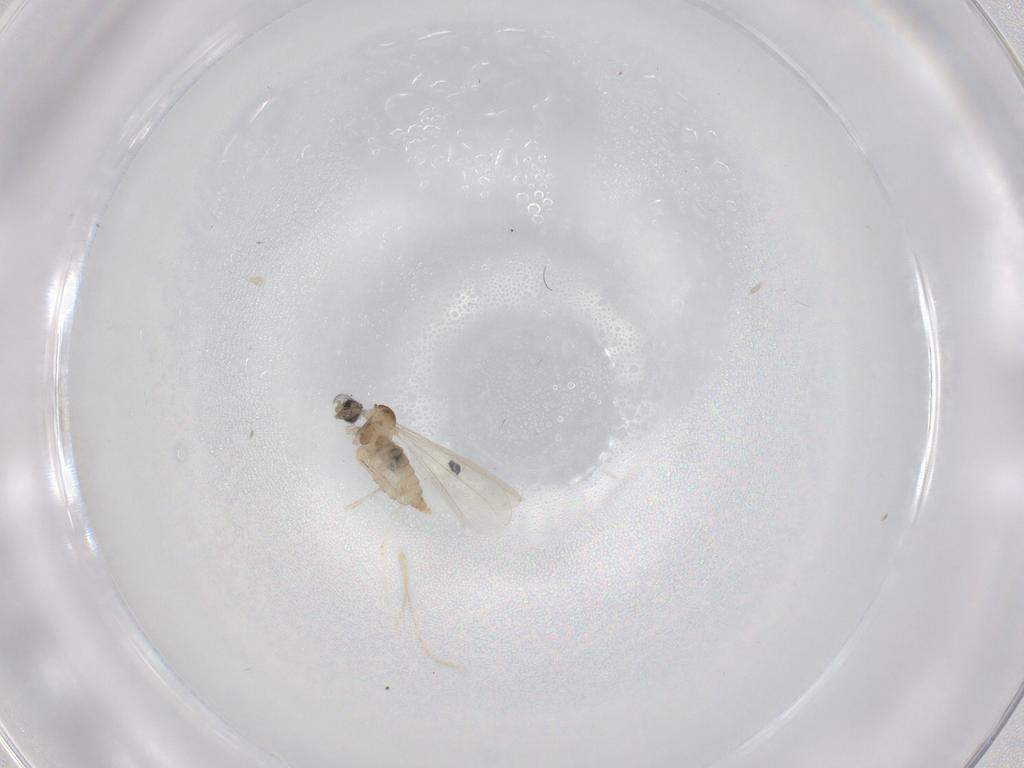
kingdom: Animalia
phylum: Arthropoda
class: Insecta
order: Diptera
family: Cecidomyiidae
